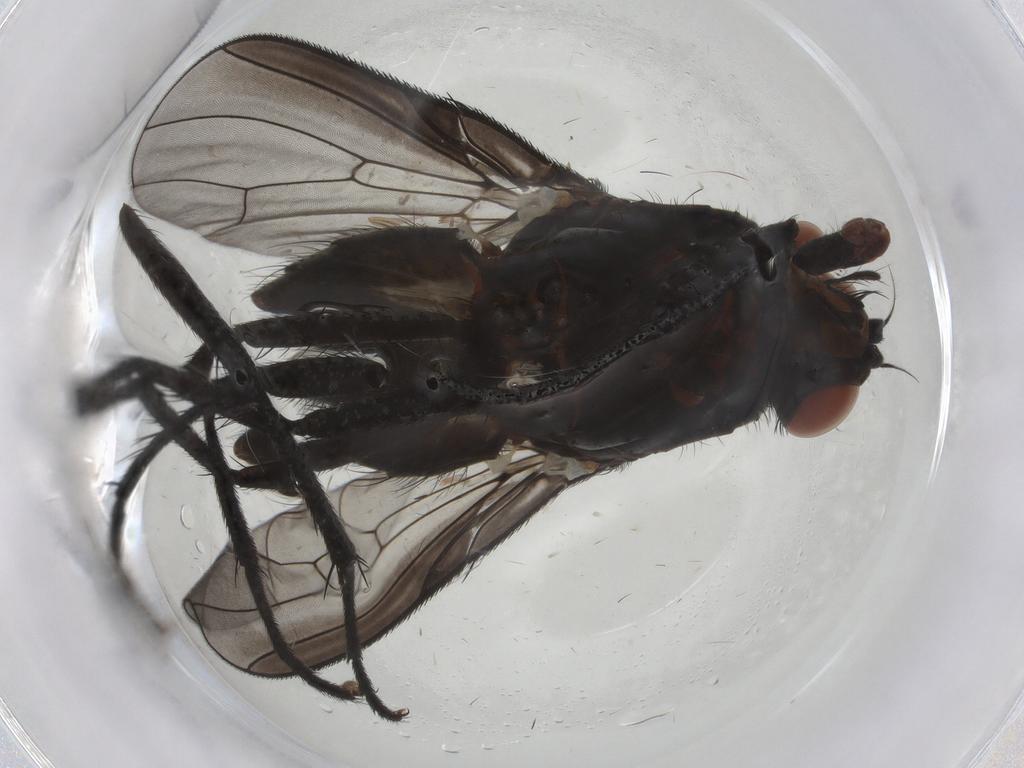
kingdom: Animalia
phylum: Arthropoda
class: Insecta
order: Diptera
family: Anthomyiidae
